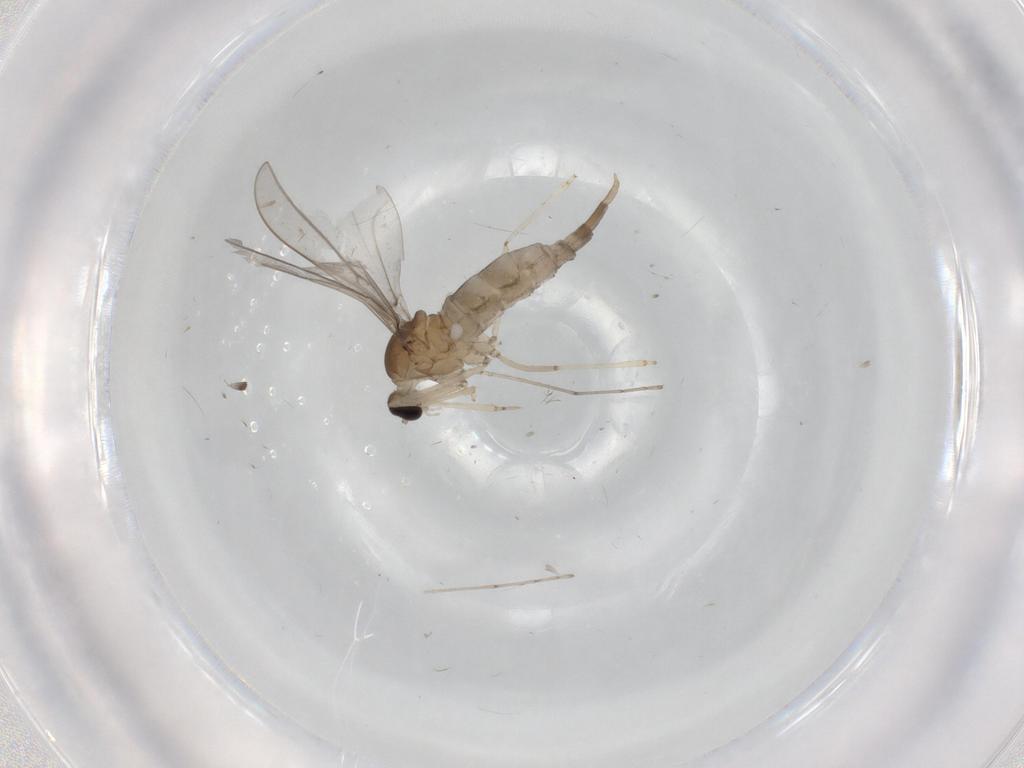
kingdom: Animalia
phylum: Arthropoda
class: Insecta
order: Diptera
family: Cecidomyiidae
